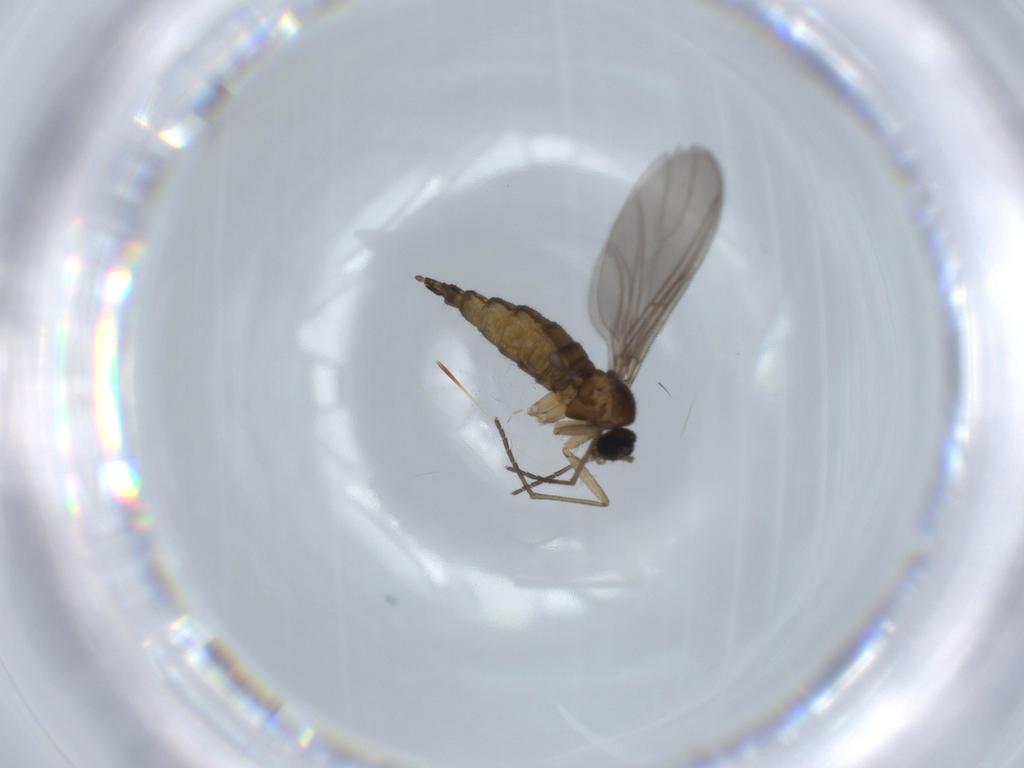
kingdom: Animalia
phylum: Arthropoda
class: Insecta
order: Diptera
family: Sciaridae
